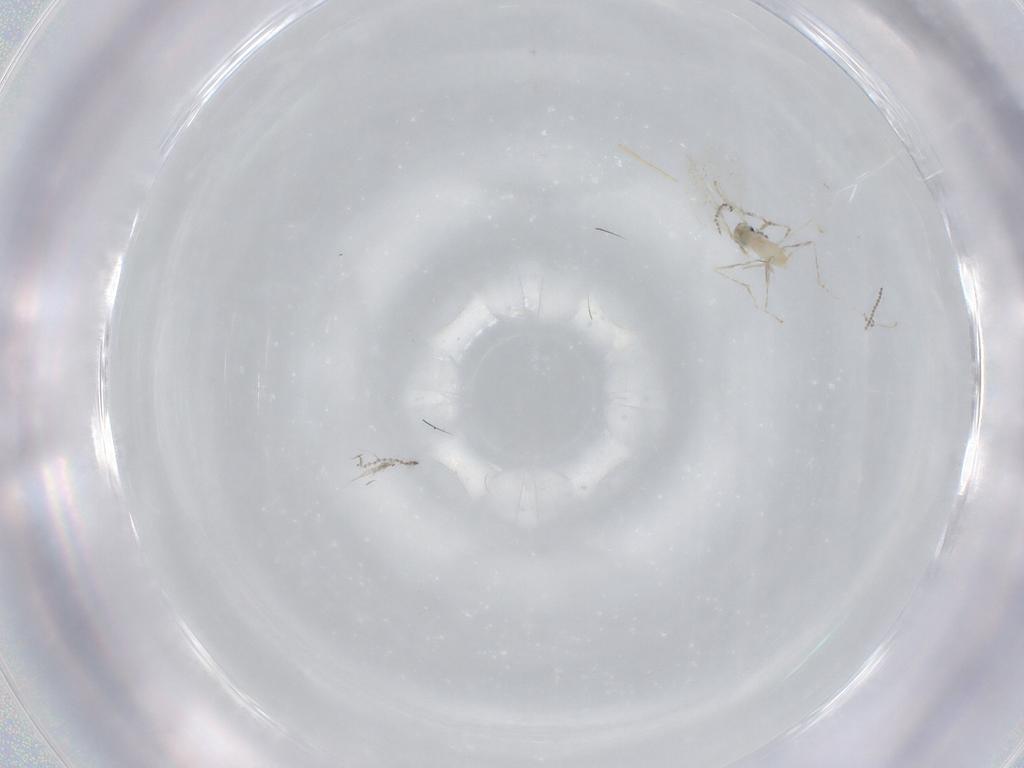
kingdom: Animalia
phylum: Arthropoda
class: Insecta
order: Diptera
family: Cecidomyiidae
